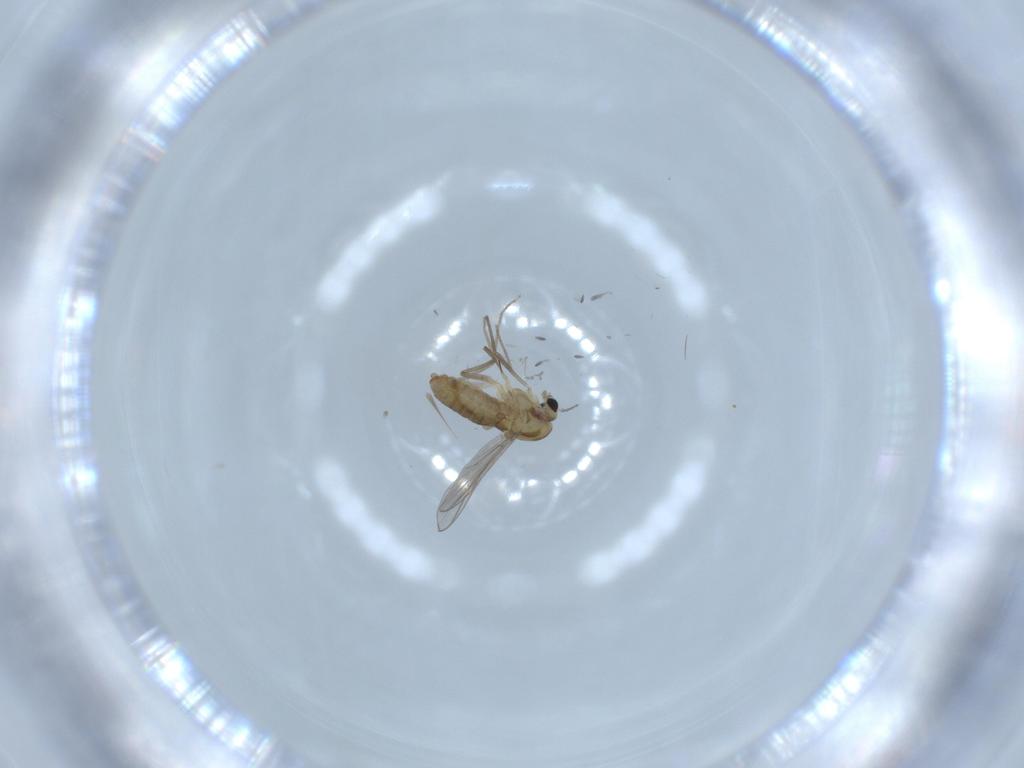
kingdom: Animalia
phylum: Arthropoda
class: Insecta
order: Diptera
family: Chironomidae
